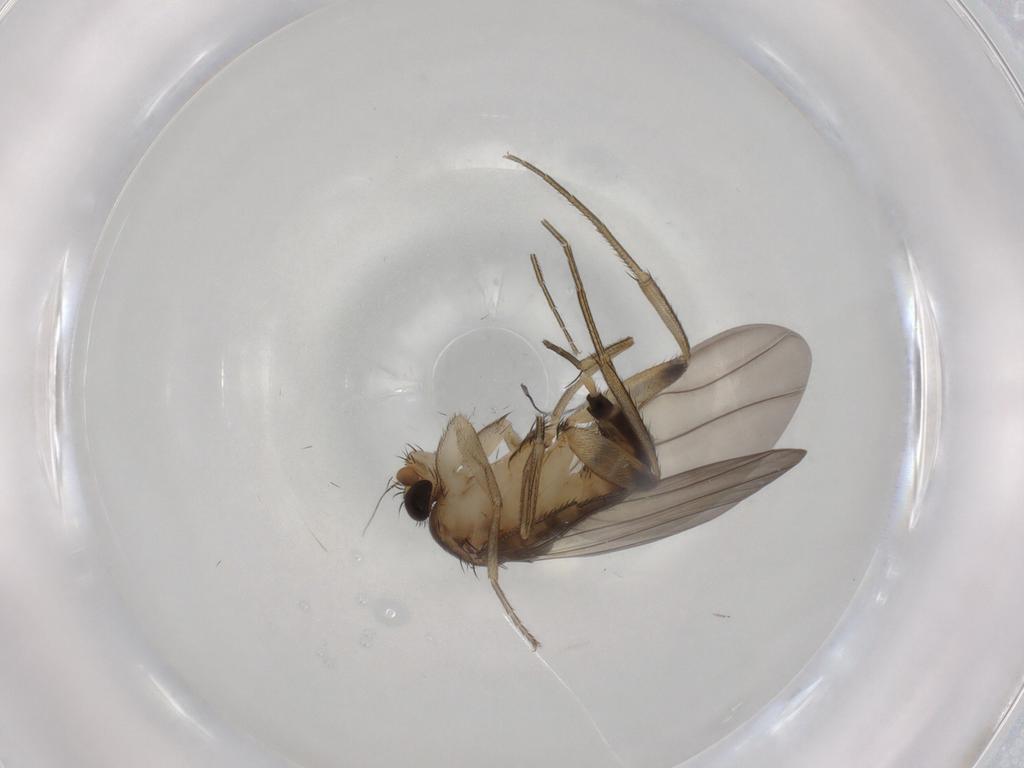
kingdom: Animalia
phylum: Arthropoda
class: Insecta
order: Diptera
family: Phoridae
